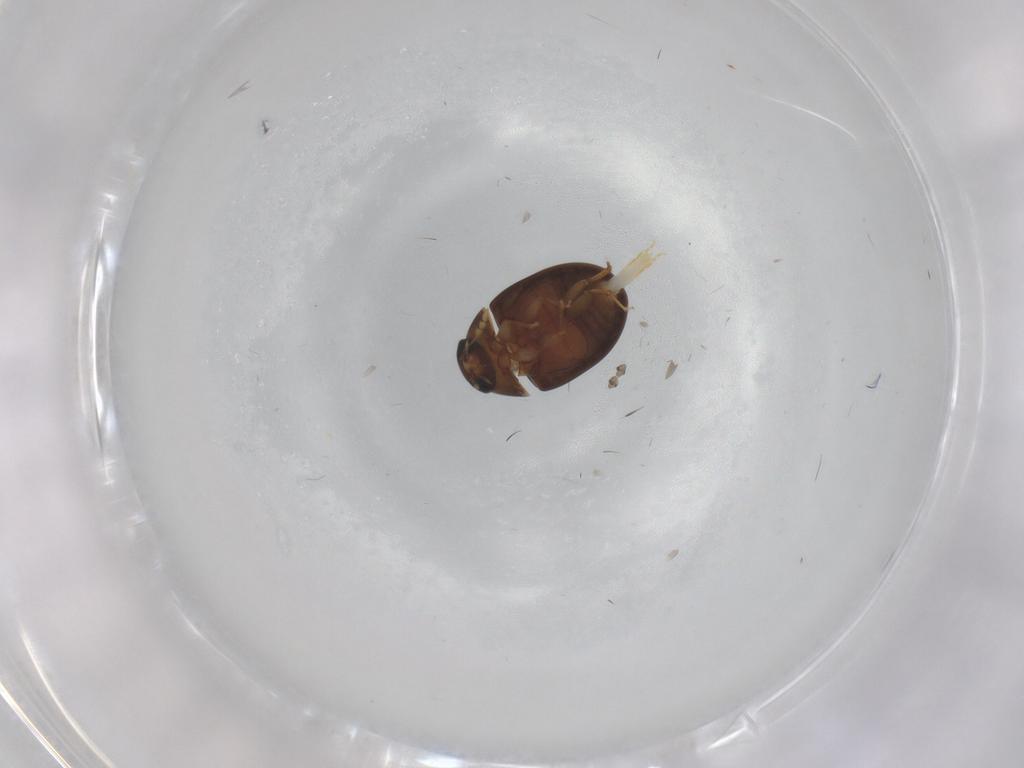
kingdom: Animalia
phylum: Arthropoda
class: Insecta
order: Coleoptera
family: Phalacridae
